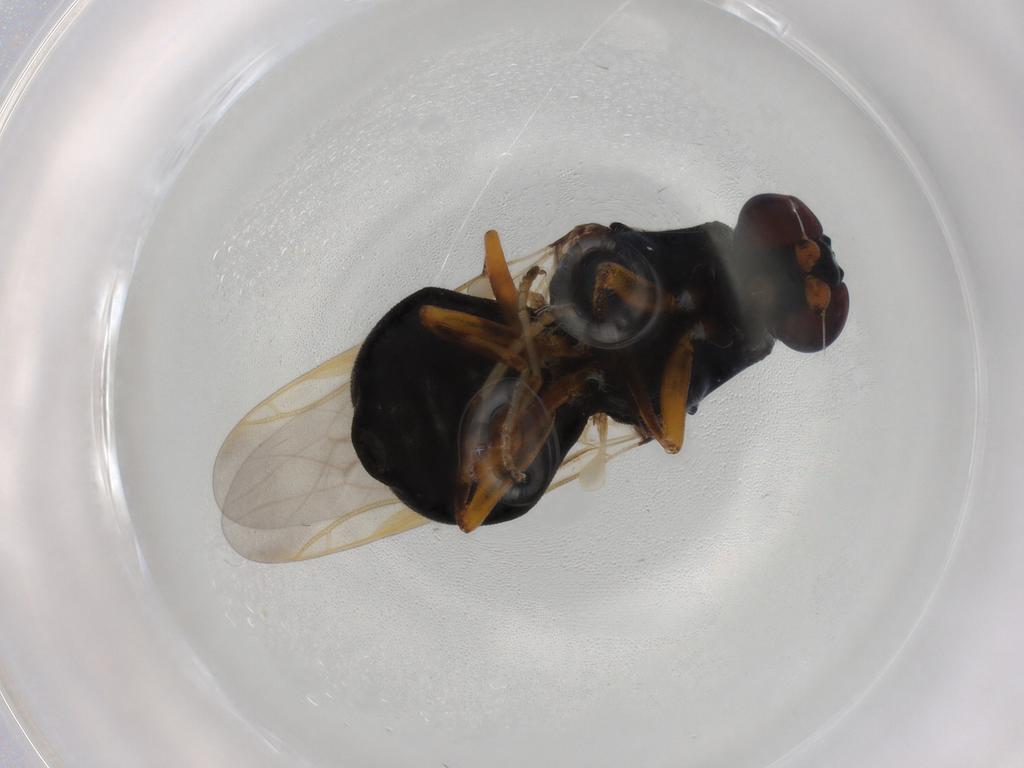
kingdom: Animalia
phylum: Arthropoda
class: Insecta
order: Diptera
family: Stratiomyidae
